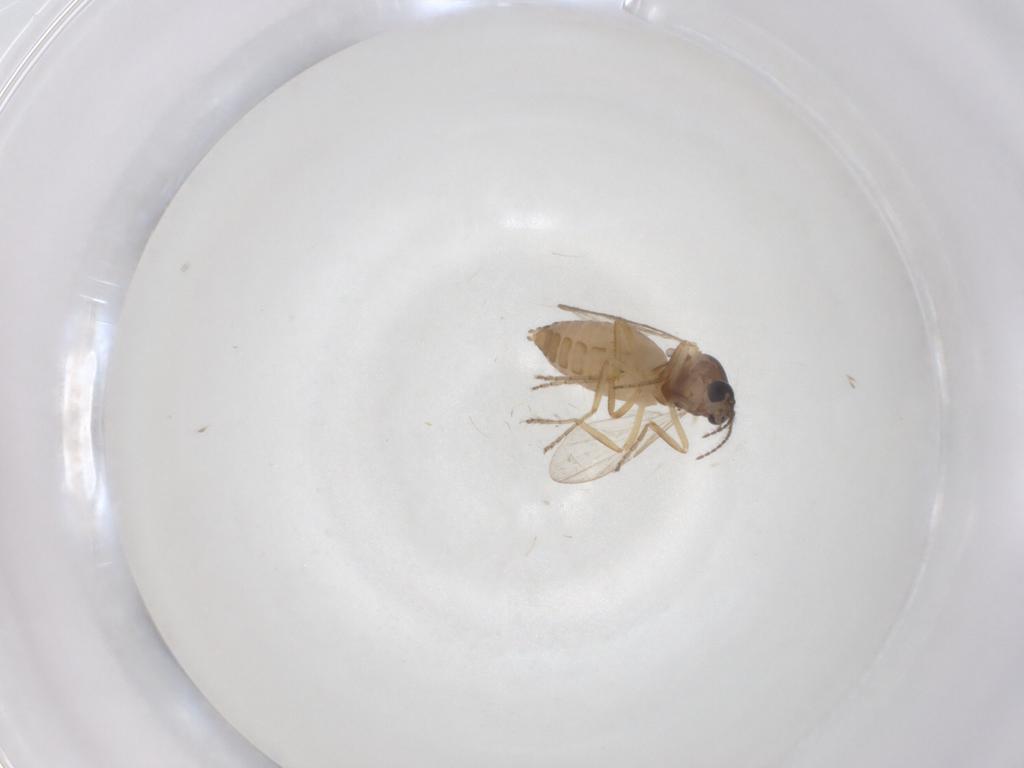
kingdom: Animalia
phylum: Arthropoda
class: Insecta
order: Diptera
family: Ceratopogonidae
